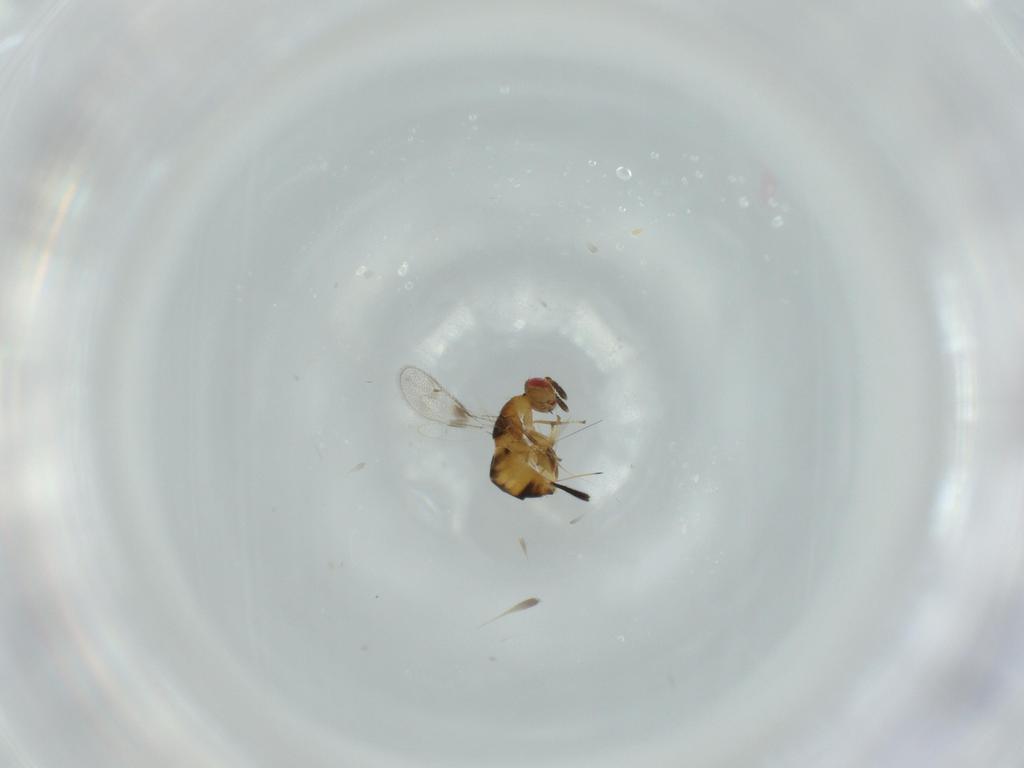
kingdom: Animalia
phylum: Arthropoda
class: Insecta
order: Hymenoptera
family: Torymidae
